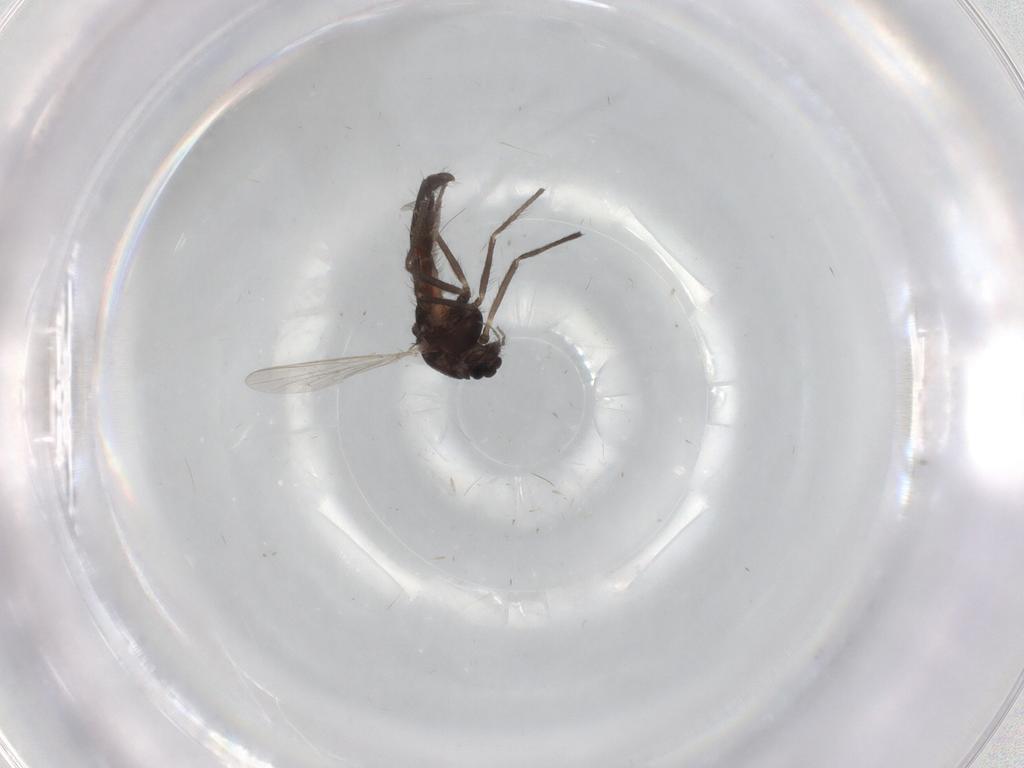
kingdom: Animalia
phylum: Arthropoda
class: Insecta
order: Diptera
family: Chironomidae
